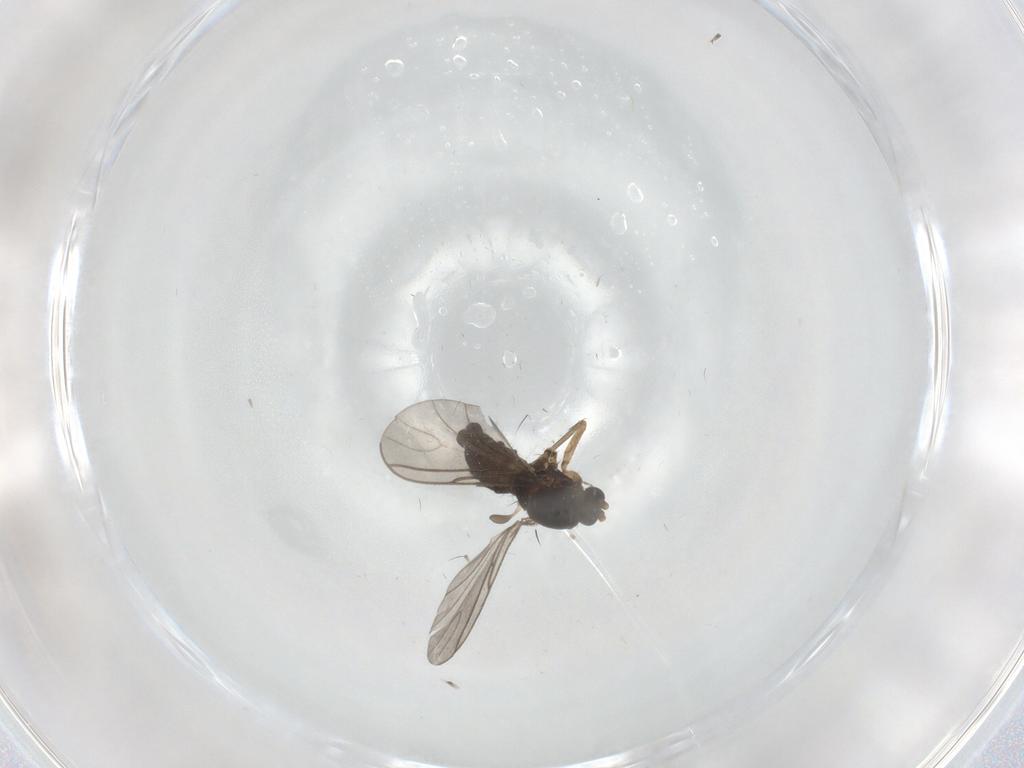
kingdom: Animalia
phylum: Arthropoda
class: Insecta
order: Diptera
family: Sciaridae
